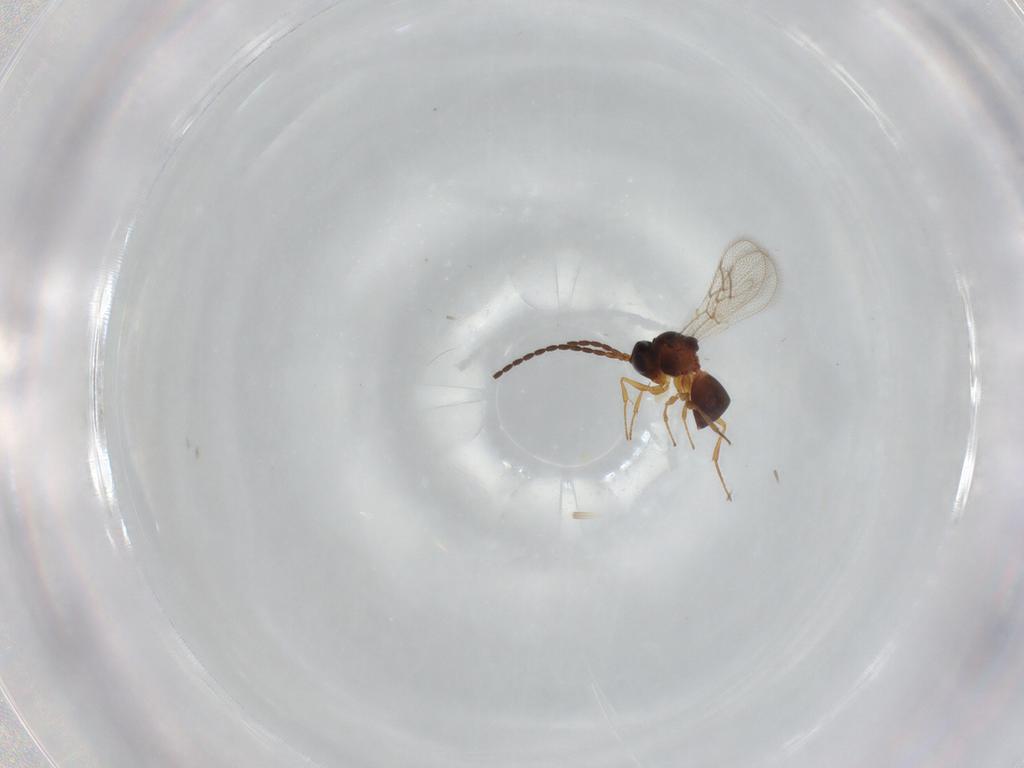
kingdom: Animalia
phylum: Arthropoda
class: Insecta
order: Hymenoptera
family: Figitidae
